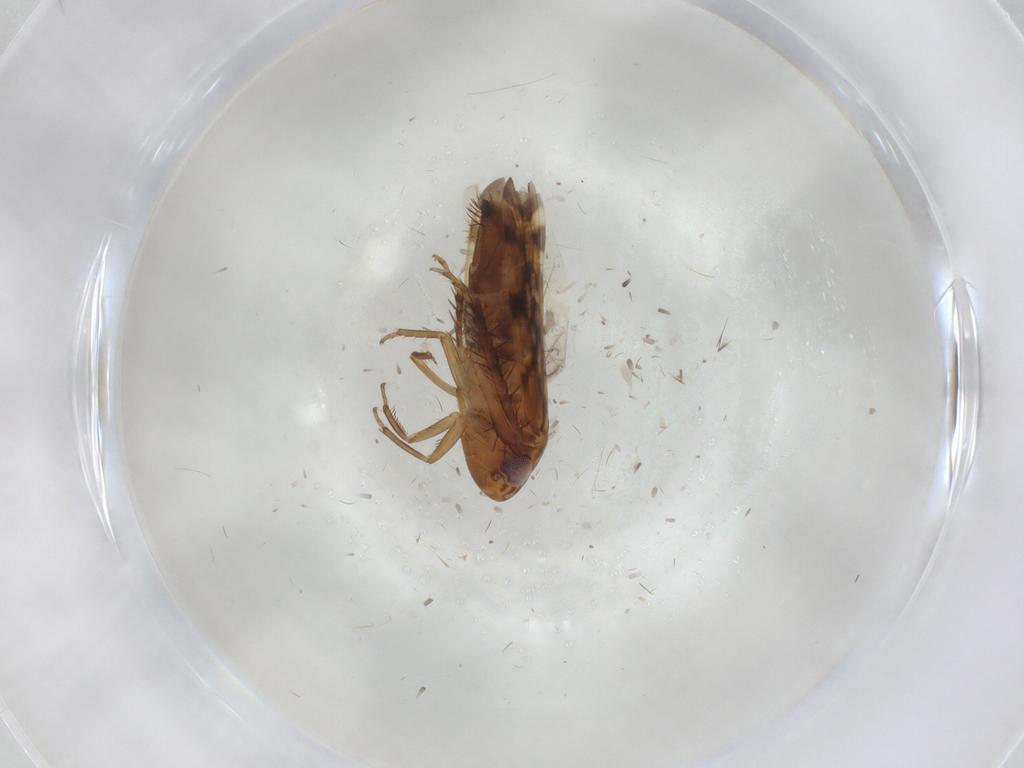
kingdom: Animalia
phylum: Arthropoda
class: Insecta
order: Hemiptera
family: Cicadellidae
